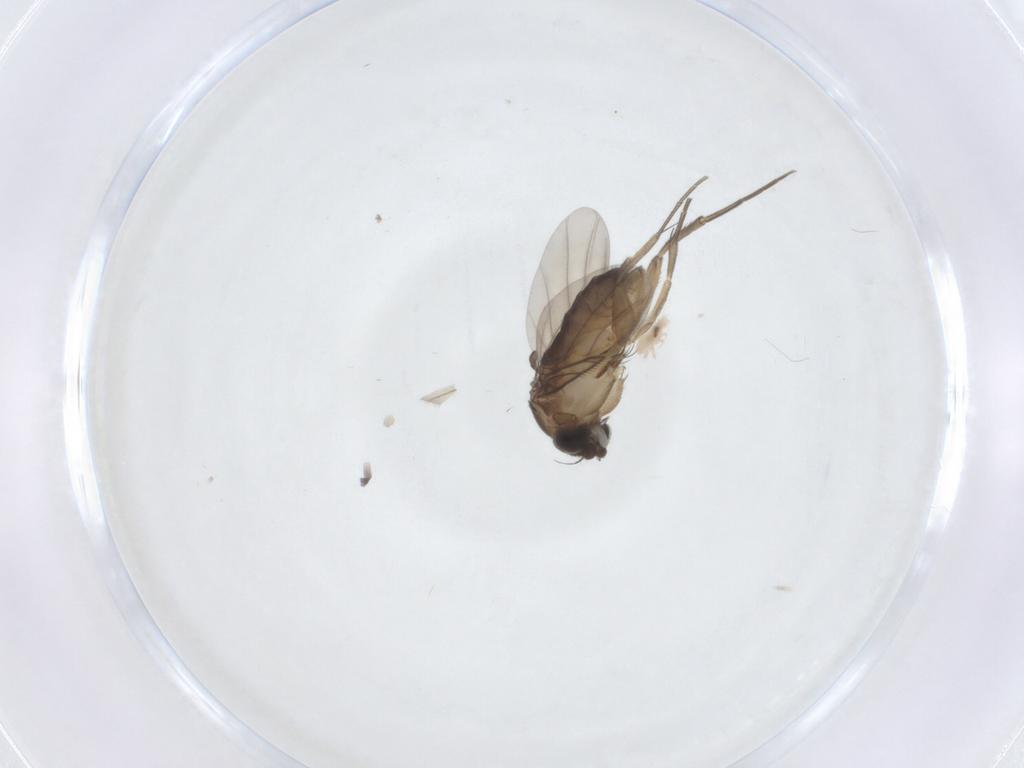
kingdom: Animalia
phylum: Arthropoda
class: Insecta
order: Diptera
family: Phoridae
